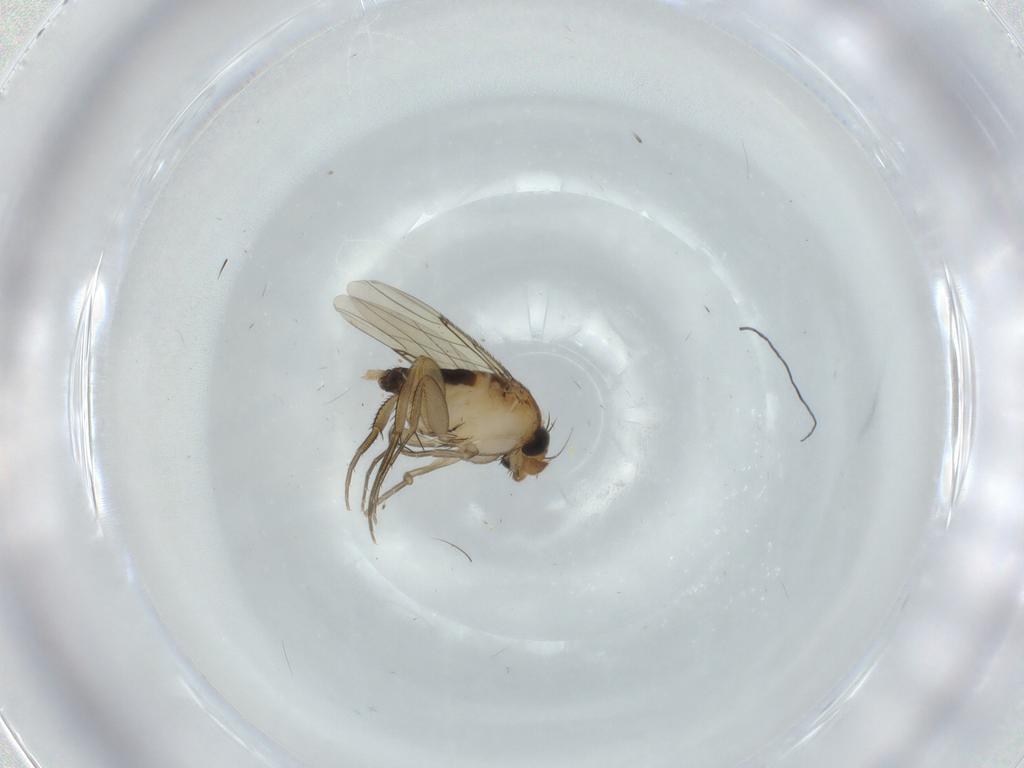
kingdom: Animalia
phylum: Arthropoda
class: Insecta
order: Diptera
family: Phoridae
